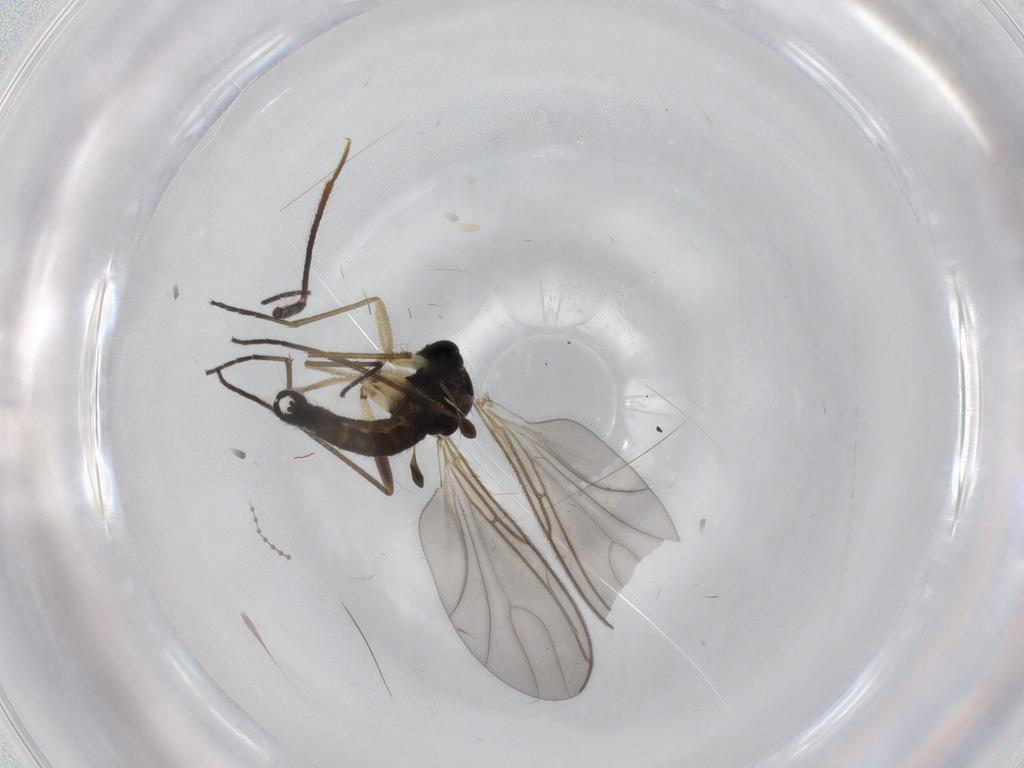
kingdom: Animalia
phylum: Arthropoda
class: Insecta
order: Diptera
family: Sciaridae
